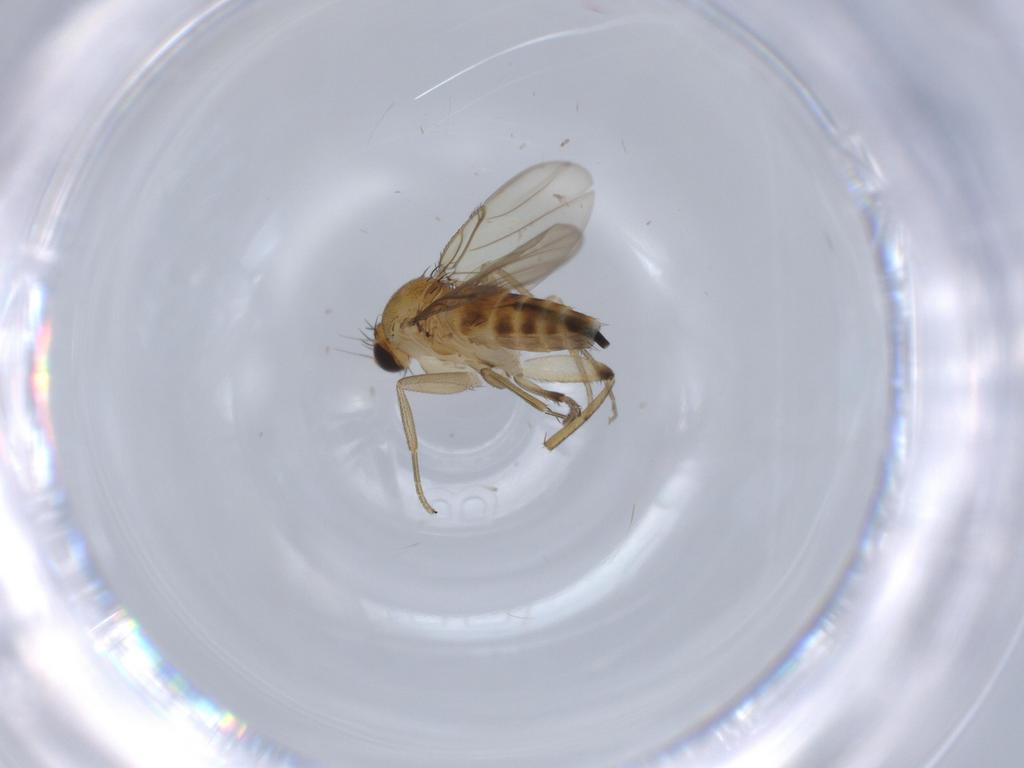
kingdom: Animalia
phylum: Arthropoda
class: Insecta
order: Diptera
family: Phoridae
